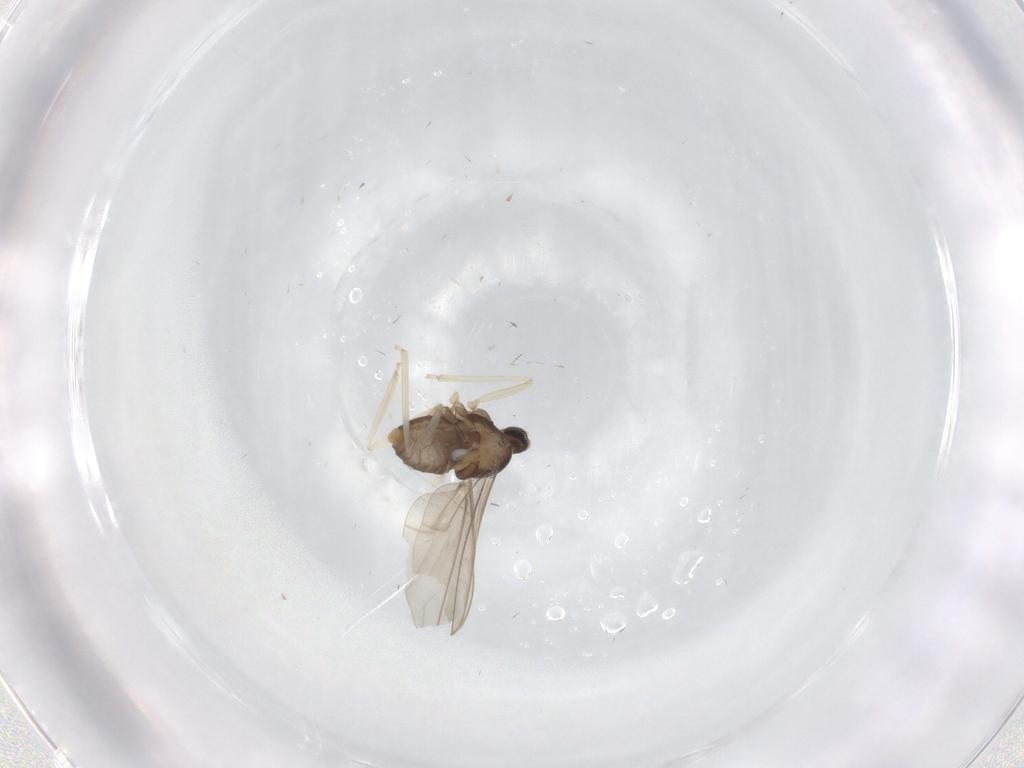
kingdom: Animalia
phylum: Arthropoda
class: Insecta
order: Diptera
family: Cecidomyiidae
